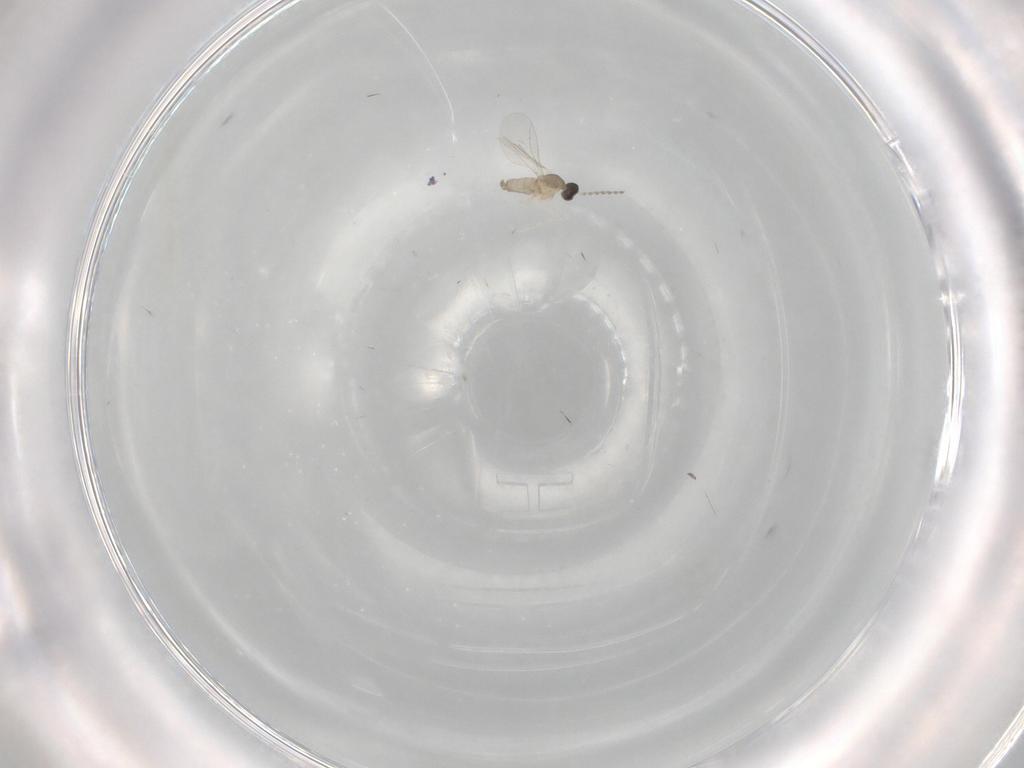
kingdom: Animalia
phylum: Arthropoda
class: Insecta
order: Diptera
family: Cecidomyiidae
